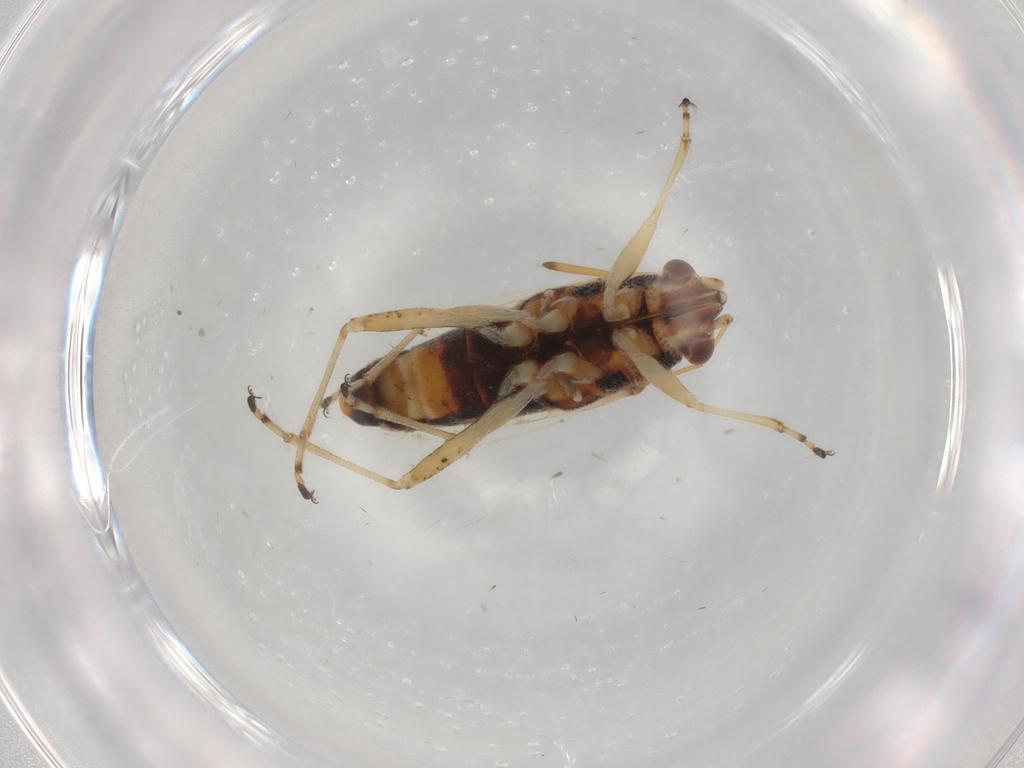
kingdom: Animalia
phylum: Arthropoda
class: Insecta
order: Hemiptera
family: Lygaeidae
